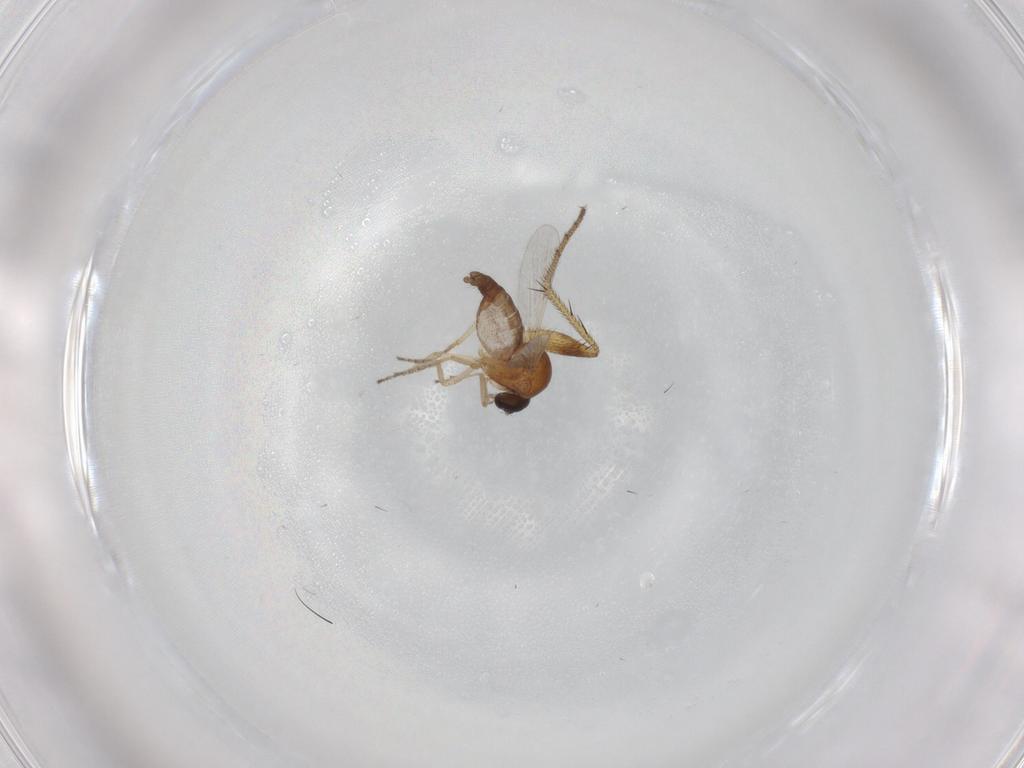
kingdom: Animalia
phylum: Arthropoda
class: Insecta
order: Diptera
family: Ceratopogonidae
